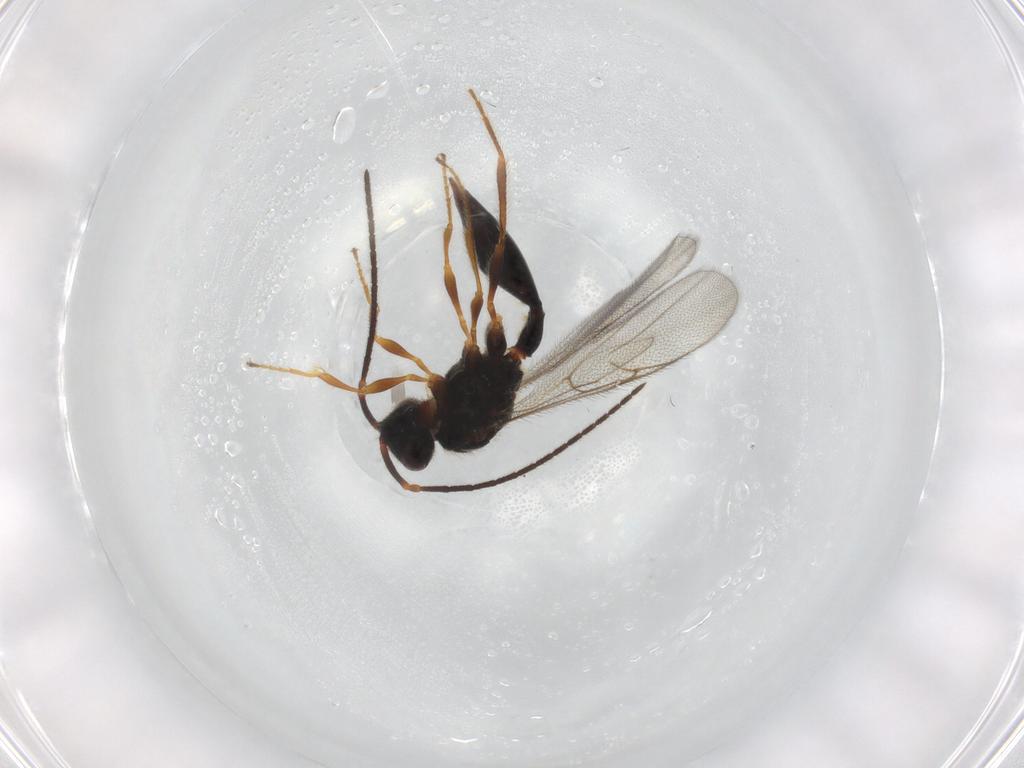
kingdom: Animalia
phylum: Arthropoda
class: Insecta
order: Hymenoptera
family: Diapriidae
